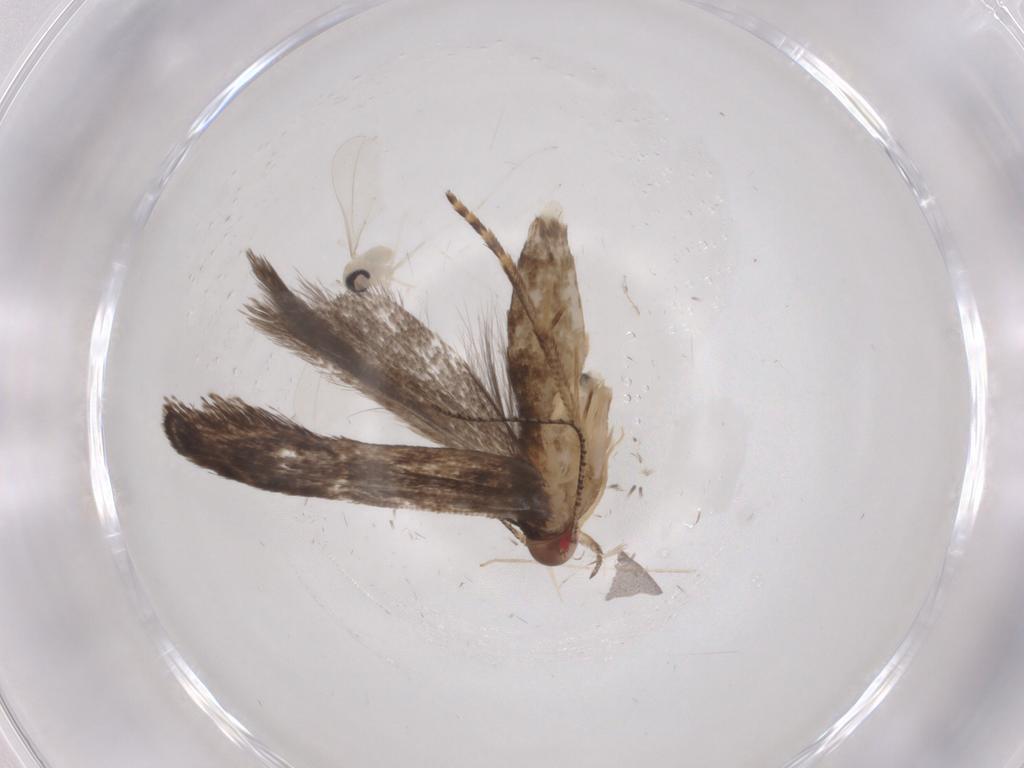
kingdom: Animalia
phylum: Arthropoda
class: Insecta
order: Lepidoptera
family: Gelechiidae
